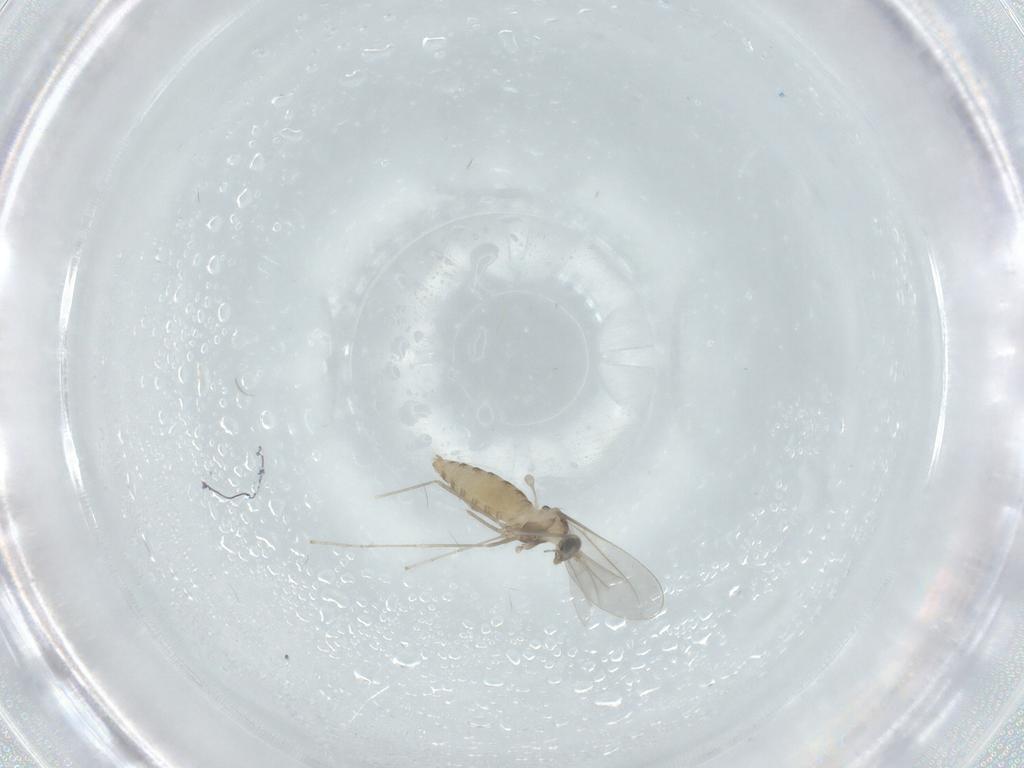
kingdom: Animalia
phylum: Arthropoda
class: Insecta
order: Diptera
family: Cecidomyiidae
